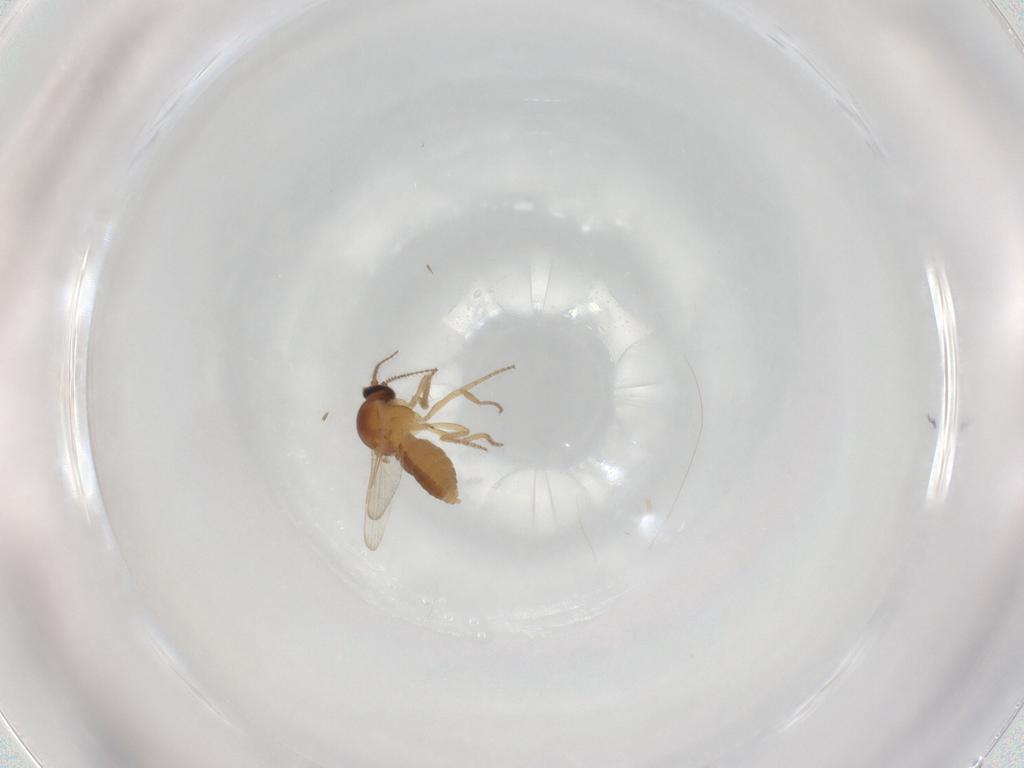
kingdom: Animalia
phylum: Arthropoda
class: Insecta
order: Diptera
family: Ceratopogonidae
